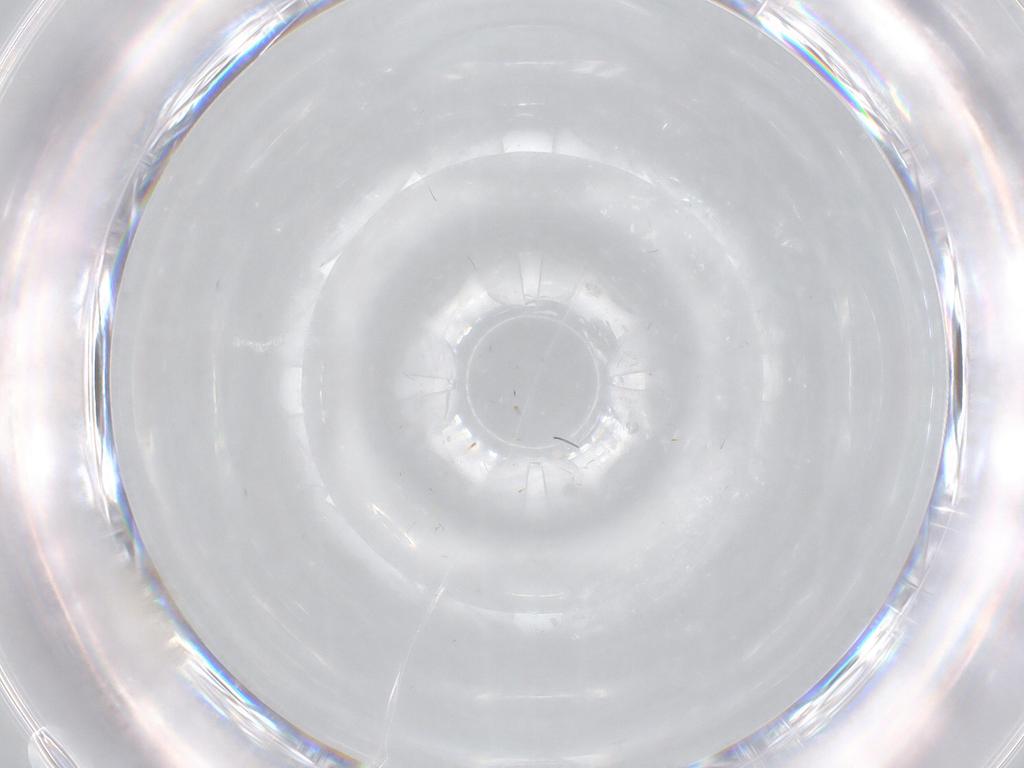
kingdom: Animalia
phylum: Arthropoda
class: Insecta
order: Diptera
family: Cecidomyiidae
